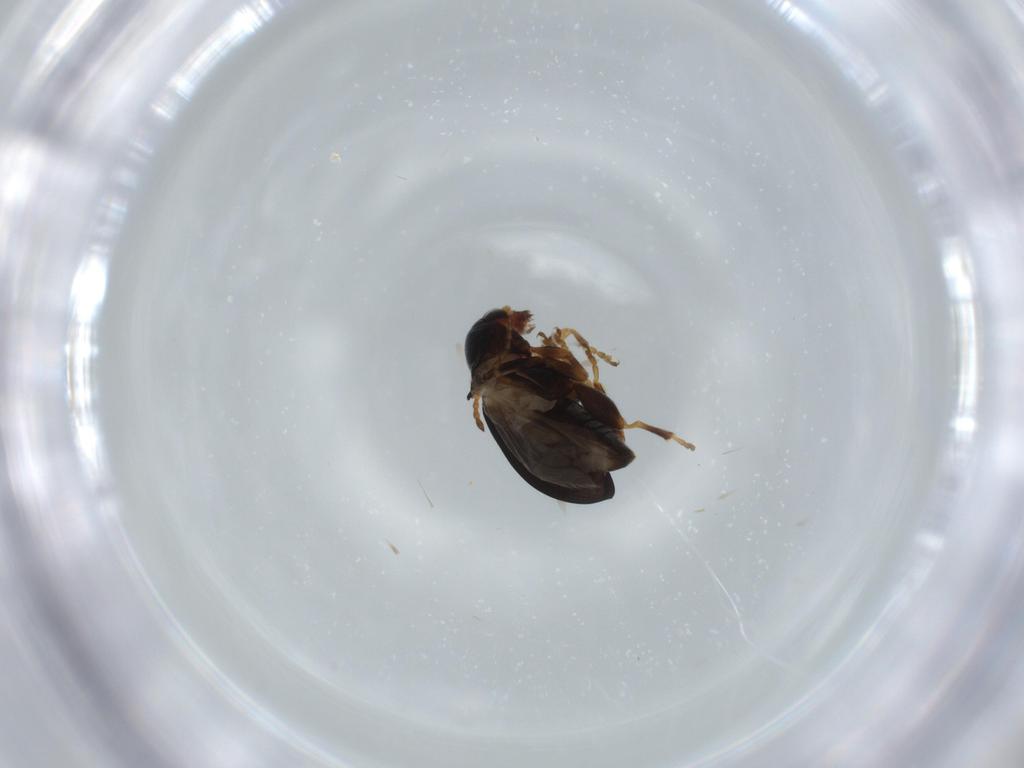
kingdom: Animalia
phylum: Arthropoda
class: Insecta
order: Coleoptera
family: Chrysomelidae
